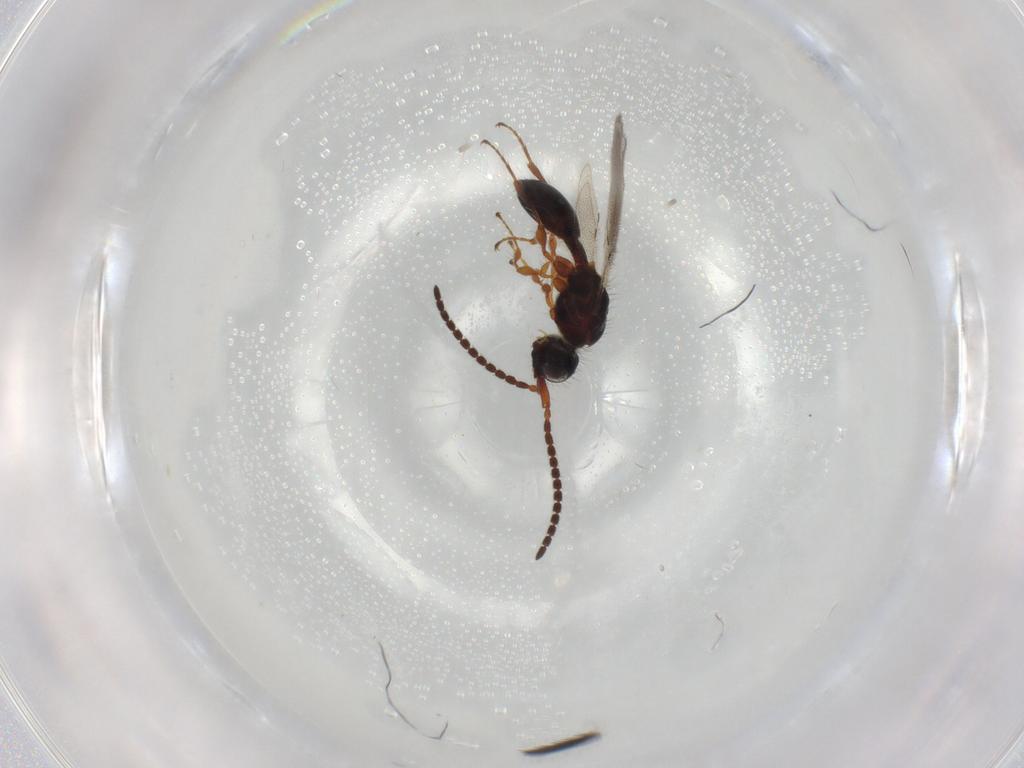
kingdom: Animalia
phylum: Arthropoda
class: Insecta
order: Hymenoptera
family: Diapriidae
